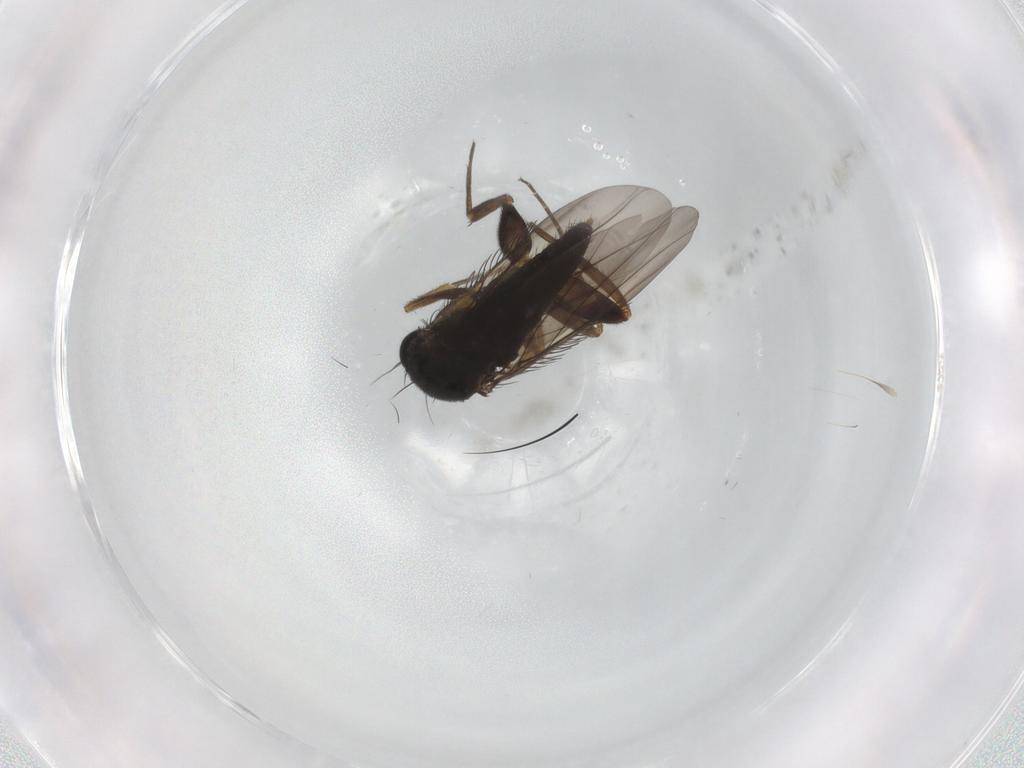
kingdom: Animalia
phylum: Arthropoda
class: Insecta
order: Diptera
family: Phoridae
